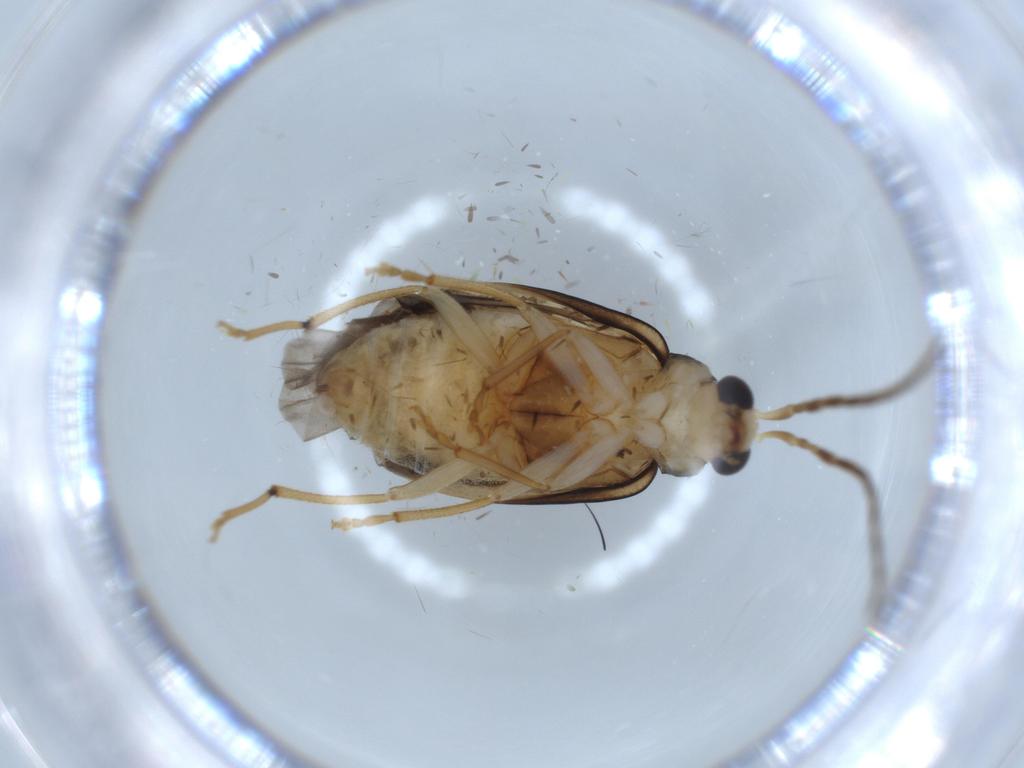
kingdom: Animalia
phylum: Arthropoda
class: Insecta
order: Coleoptera
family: Chrysomelidae
